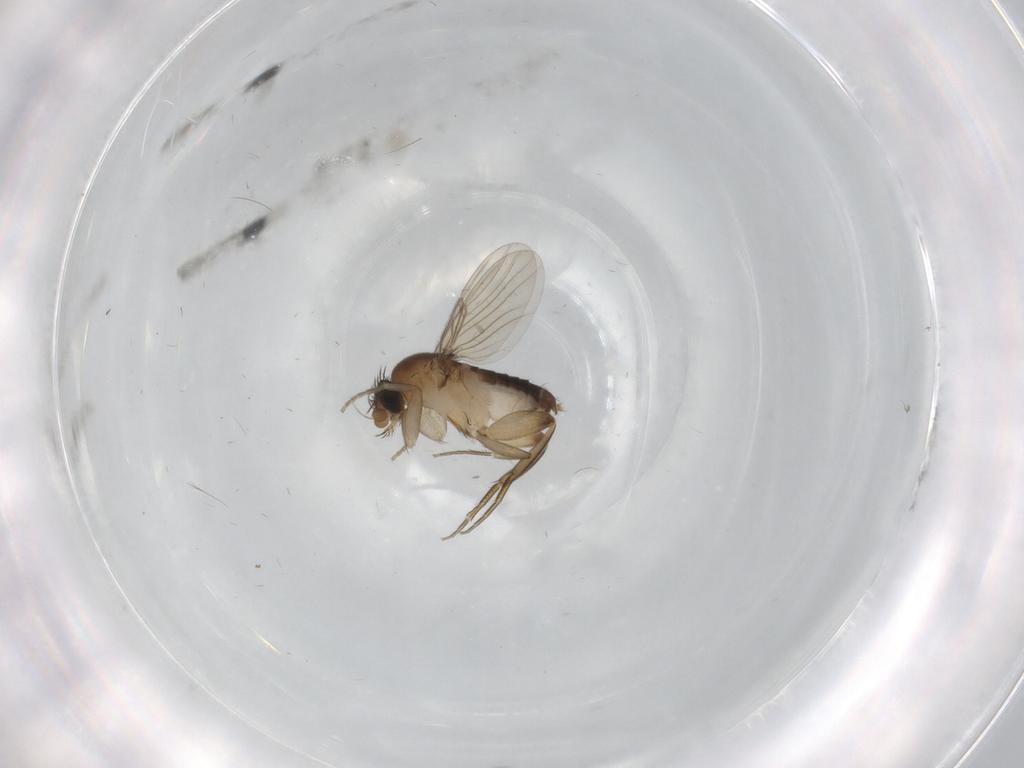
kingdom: Animalia
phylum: Arthropoda
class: Insecta
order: Diptera
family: Phoridae
